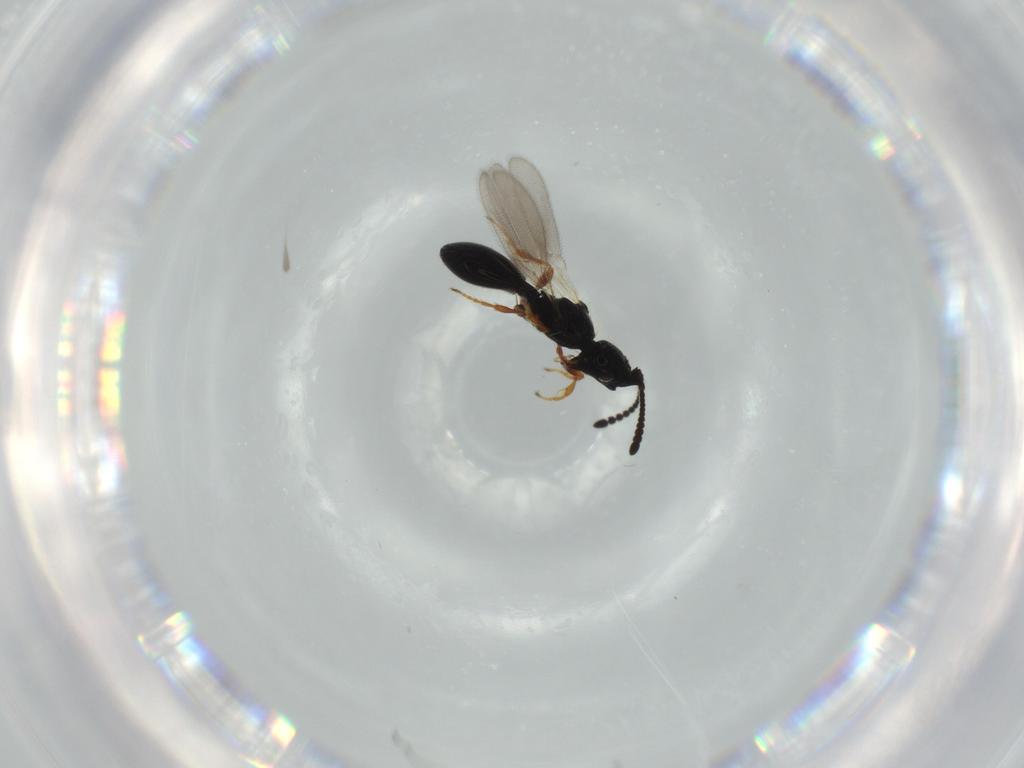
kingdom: Animalia
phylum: Arthropoda
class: Insecta
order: Hymenoptera
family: Diapriidae
